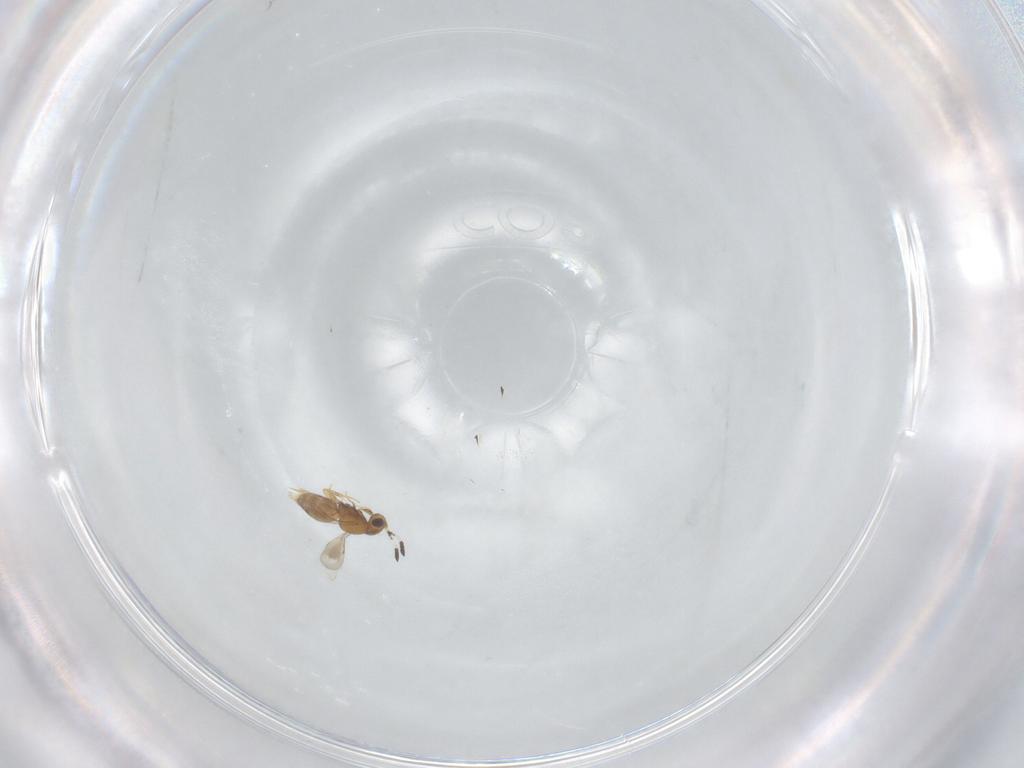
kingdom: Animalia
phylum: Arthropoda
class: Insecta
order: Hymenoptera
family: Ceraphronidae
